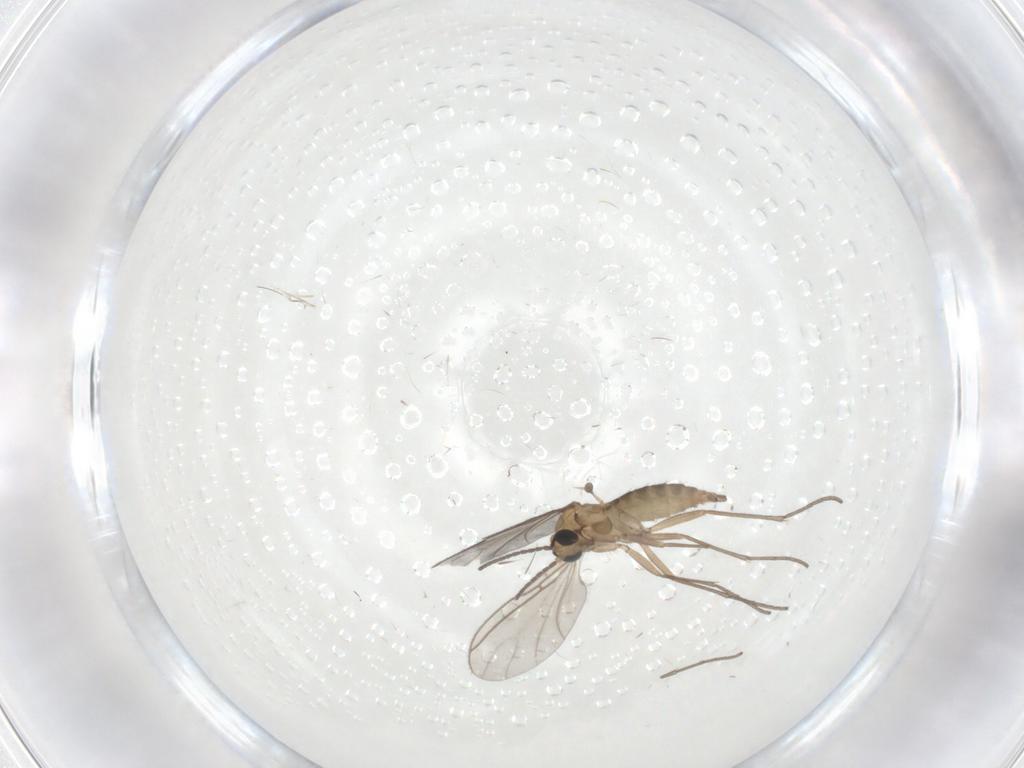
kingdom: Animalia
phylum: Arthropoda
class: Insecta
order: Diptera
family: Sciaridae
